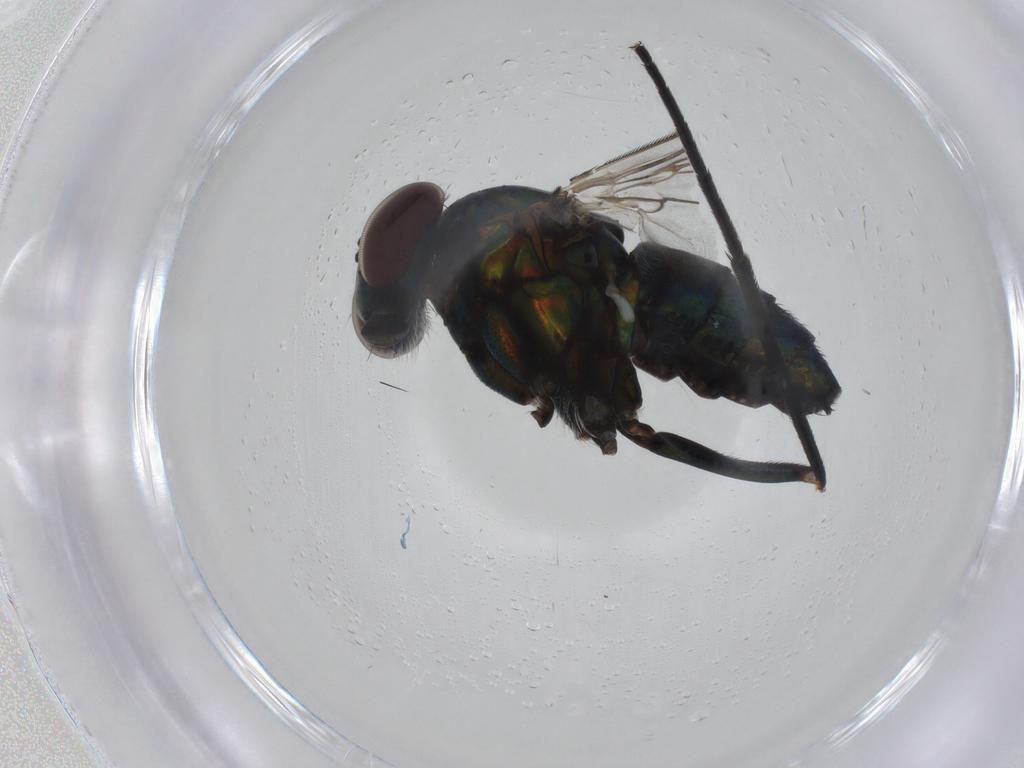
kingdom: Animalia
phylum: Arthropoda
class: Insecta
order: Diptera
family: Dolichopodidae
